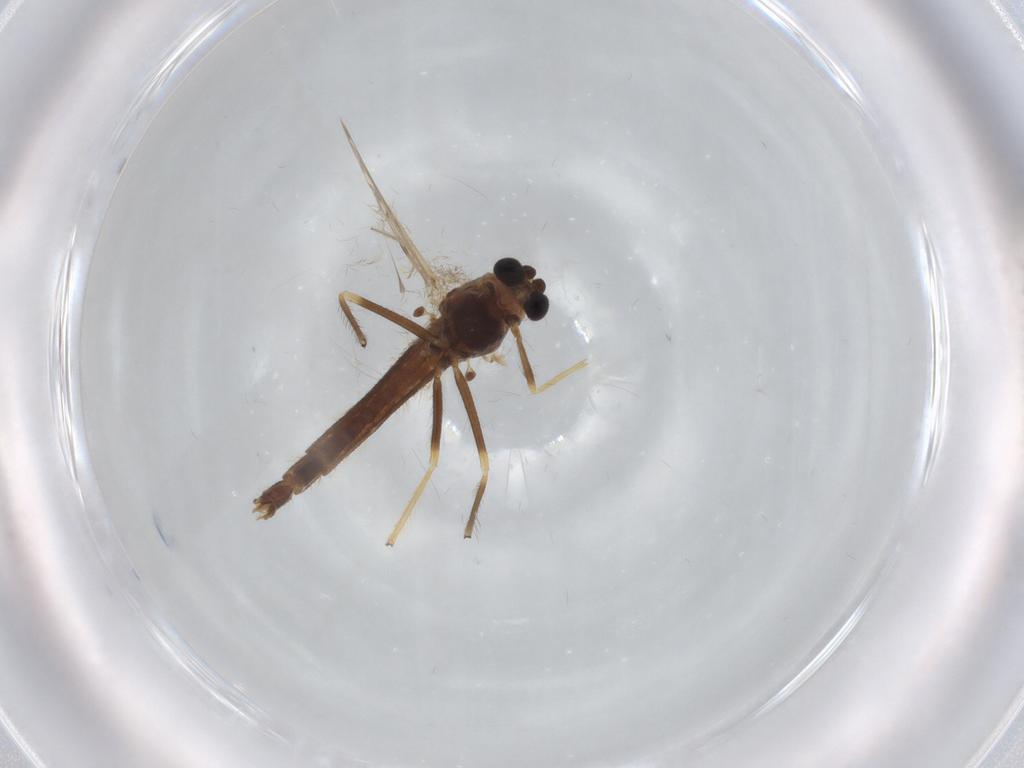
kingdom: Animalia
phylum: Arthropoda
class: Insecta
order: Diptera
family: Chironomidae
